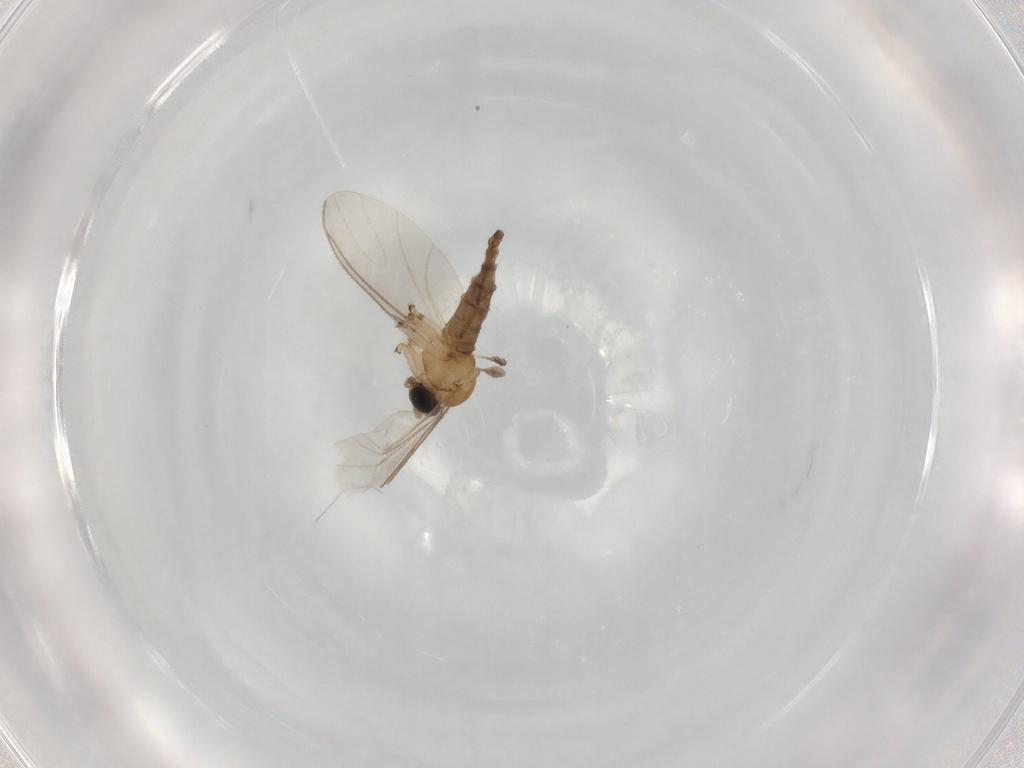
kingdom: Animalia
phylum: Arthropoda
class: Insecta
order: Diptera
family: Sciaridae
